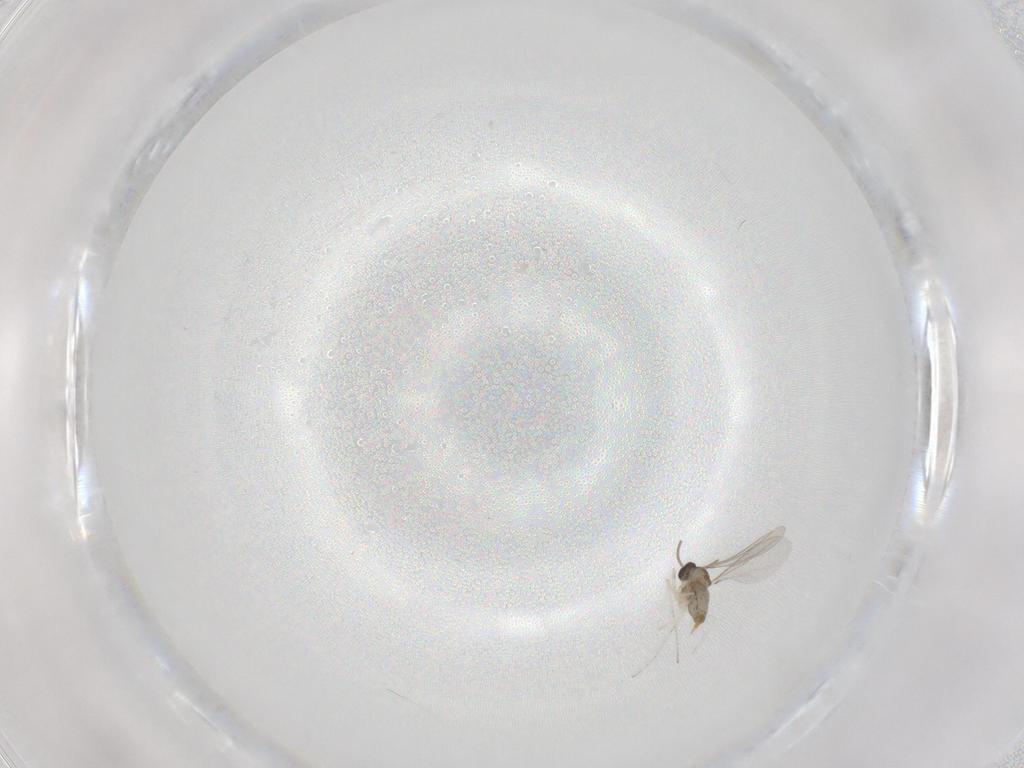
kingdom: Animalia
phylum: Arthropoda
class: Insecta
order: Diptera
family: Cecidomyiidae
